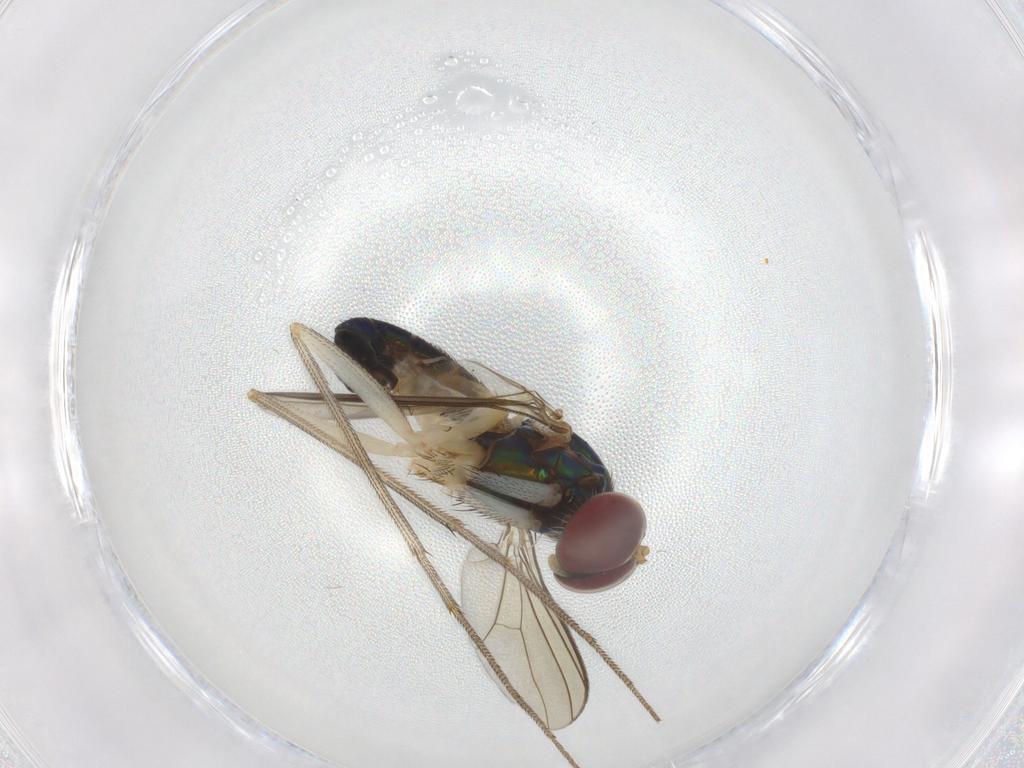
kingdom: Animalia
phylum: Arthropoda
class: Insecta
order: Diptera
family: Dolichopodidae
